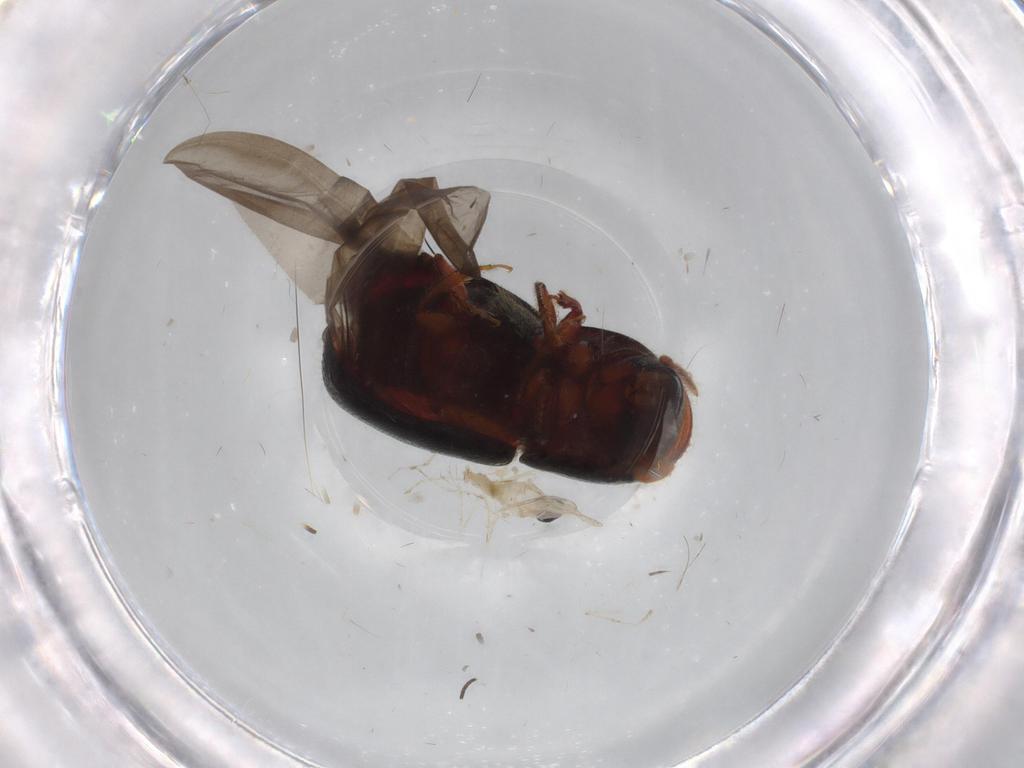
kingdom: Animalia
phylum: Arthropoda
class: Insecta
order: Coleoptera
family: Curculionidae
